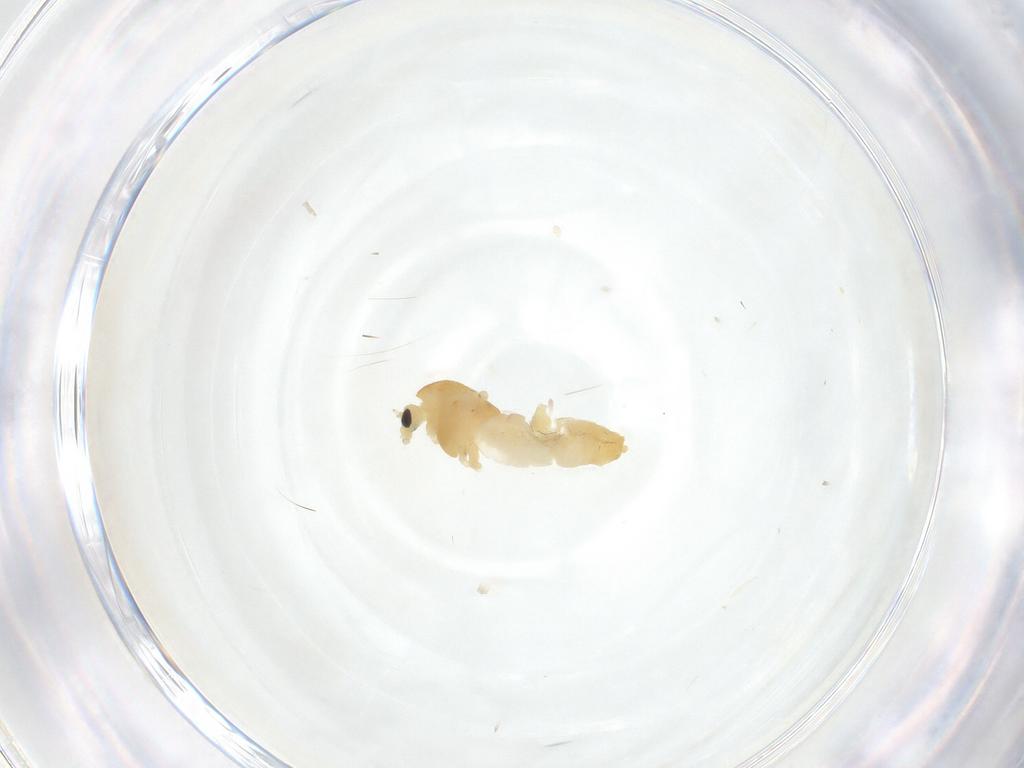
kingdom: Animalia
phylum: Arthropoda
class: Insecta
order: Diptera
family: Chironomidae
